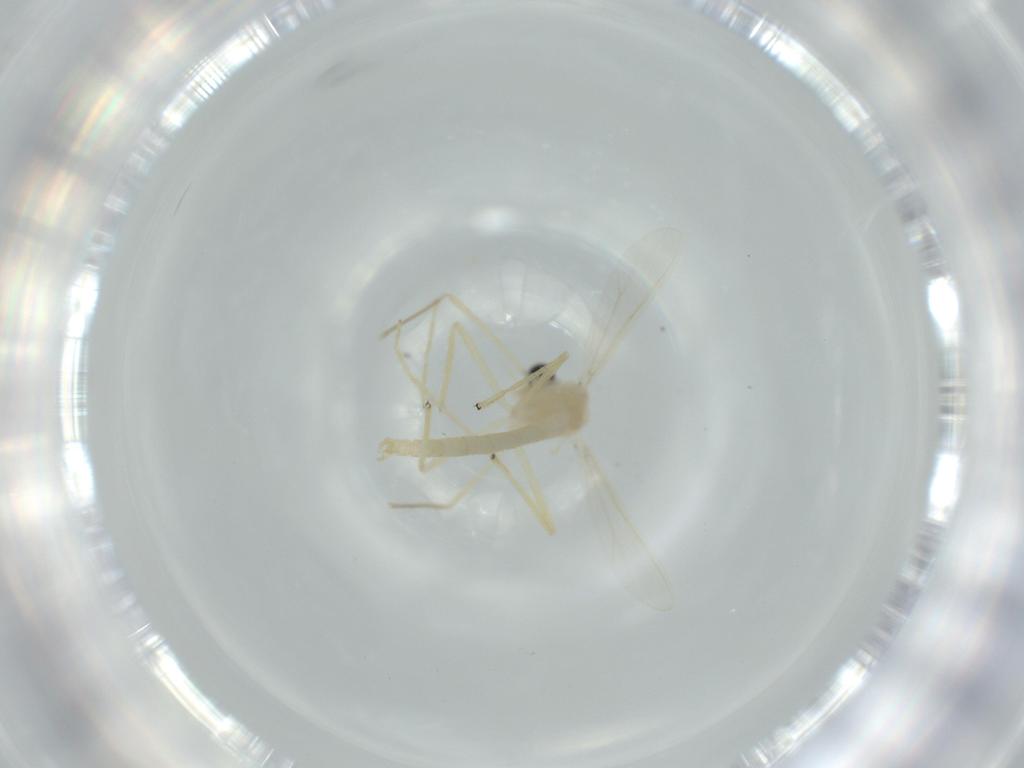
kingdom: Animalia
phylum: Arthropoda
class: Insecta
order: Diptera
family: Chironomidae
